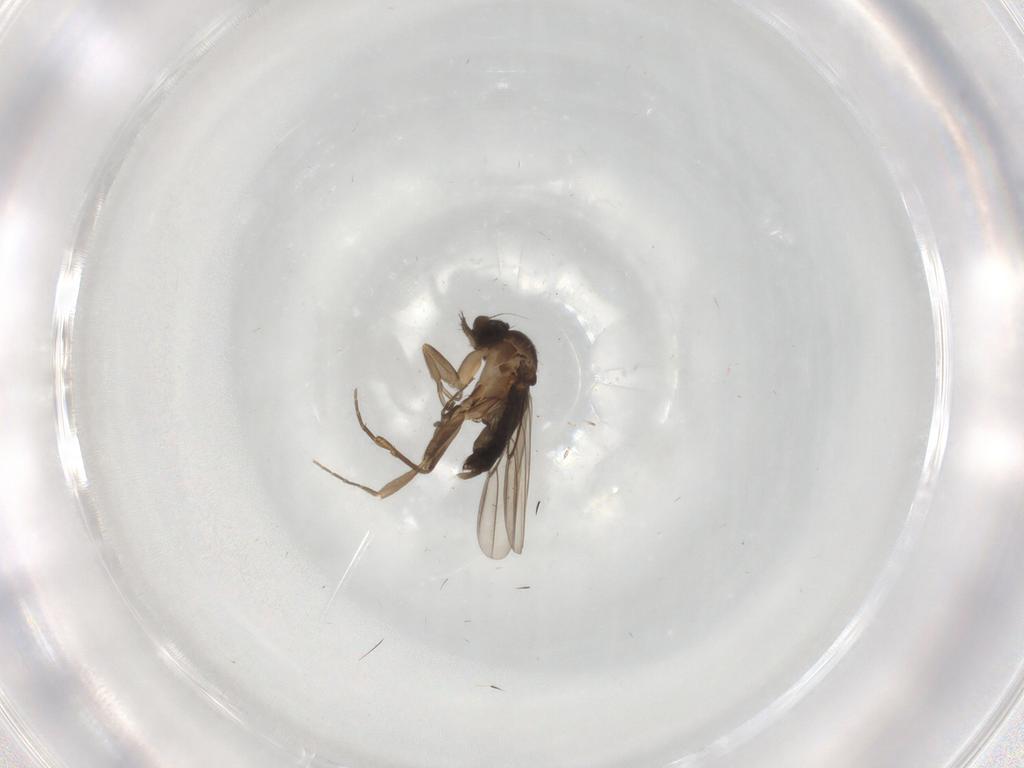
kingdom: Animalia
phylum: Arthropoda
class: Insecta
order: Diptera
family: Phoridae
